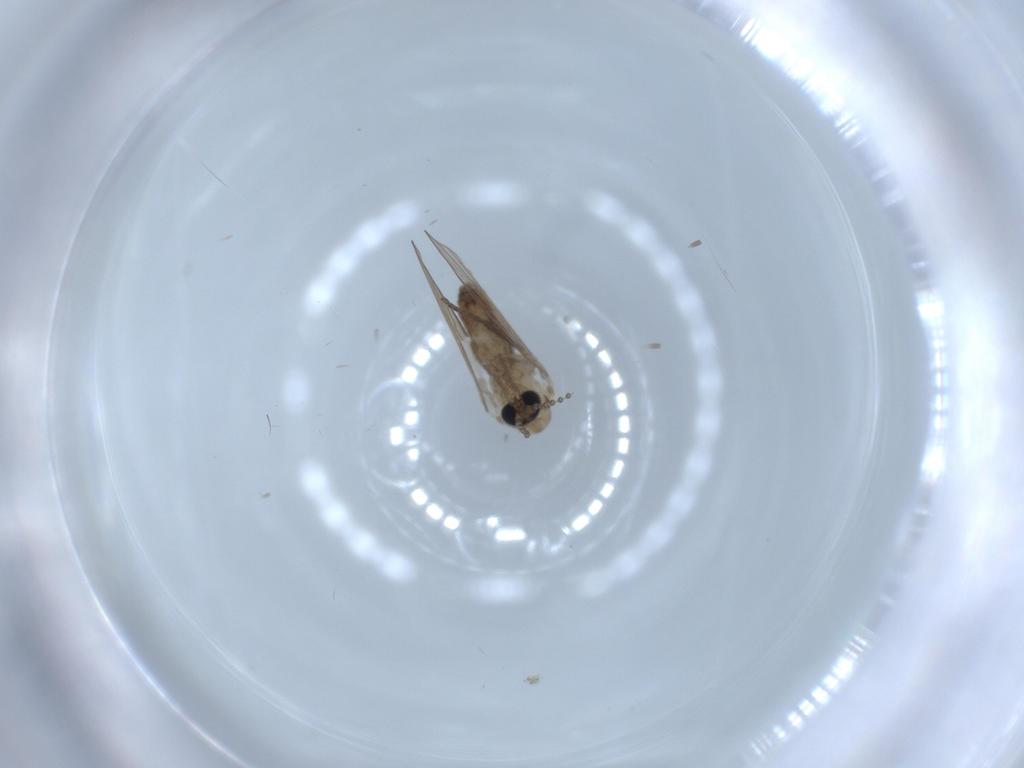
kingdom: Animalia
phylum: Arthropoda
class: Insecta
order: Diptera
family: Psychodidae
